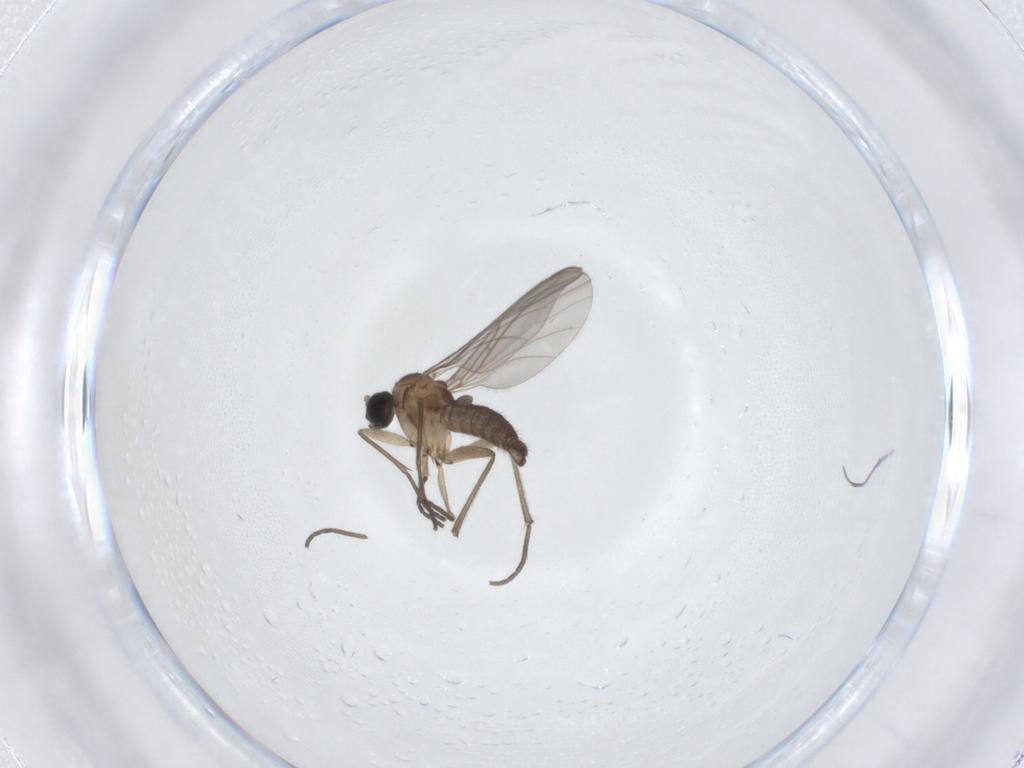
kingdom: Animalia
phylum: Arthropoda
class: Insecta
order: Diptera
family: Sciaridae
